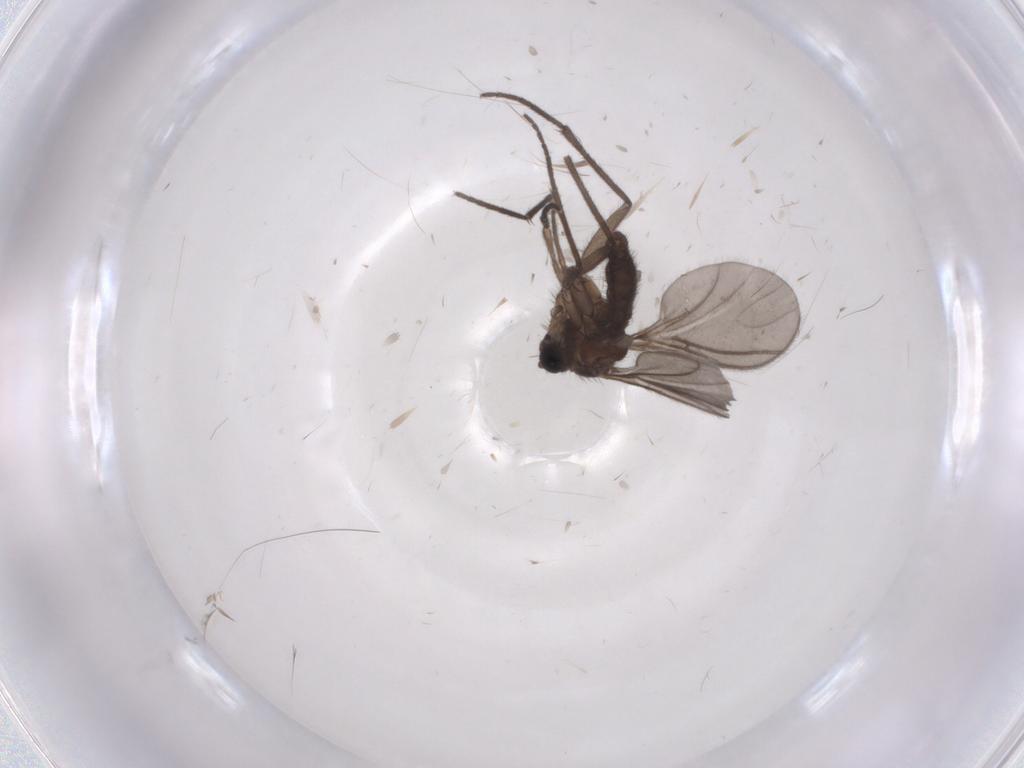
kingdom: Animalia
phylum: Arthropoda
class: Insecta
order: Diptera
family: Sciaridae
